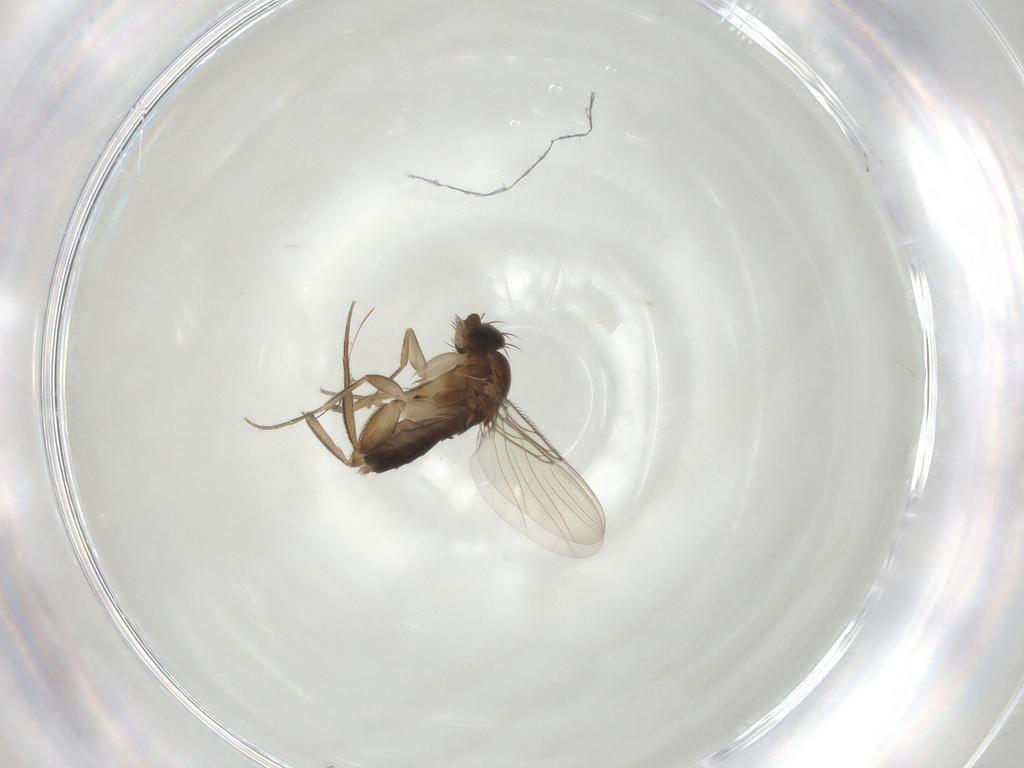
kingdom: Animalia
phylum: Arthropoda
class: Insecta
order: Diptera
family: Phoridae
